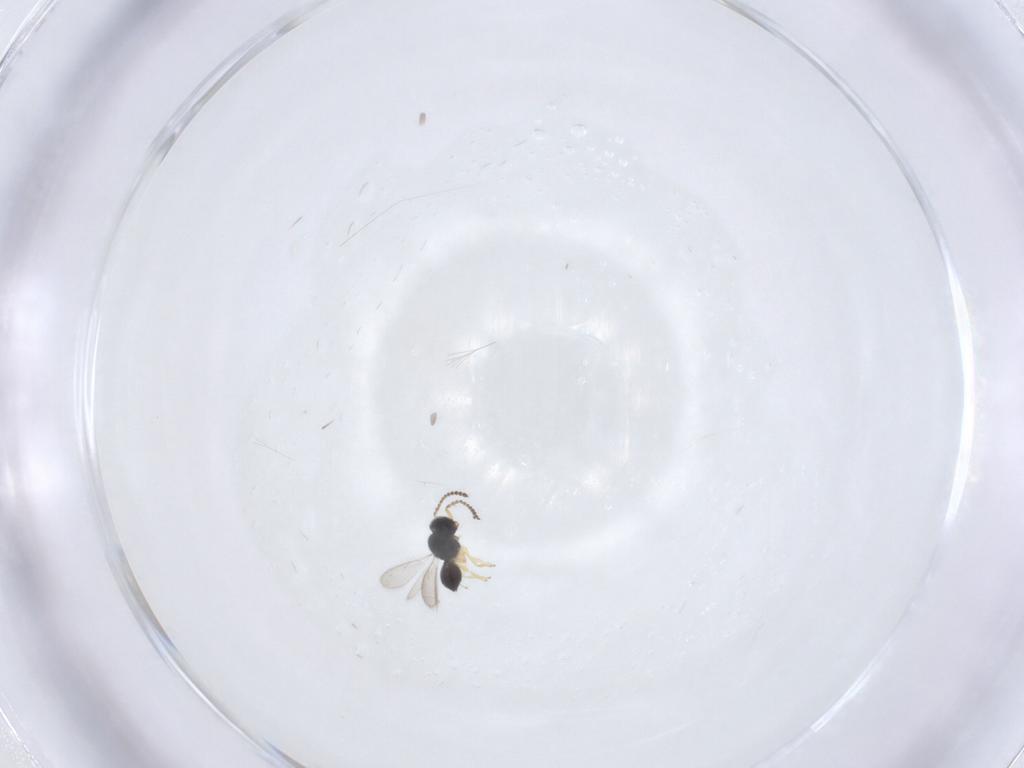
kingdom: Animalia
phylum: Arthropoda
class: Insecta
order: Hymenoptera
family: Scelionidae
